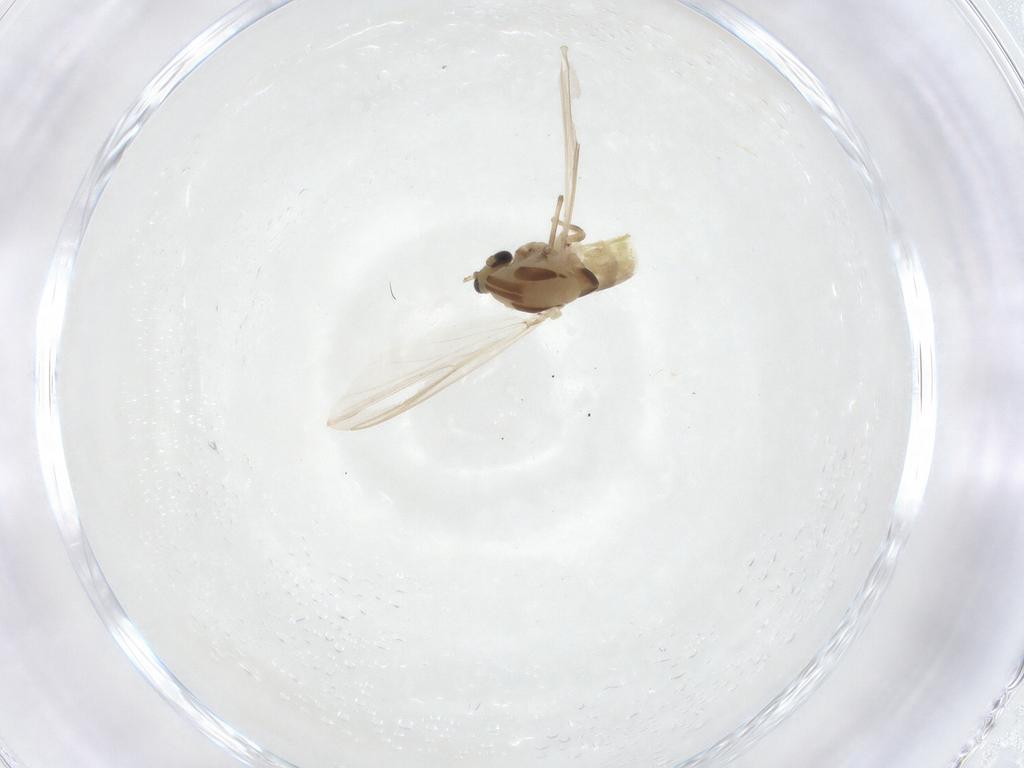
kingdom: Animalia
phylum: Arthropoda
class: Insecta
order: Diptera
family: Chironomidae
